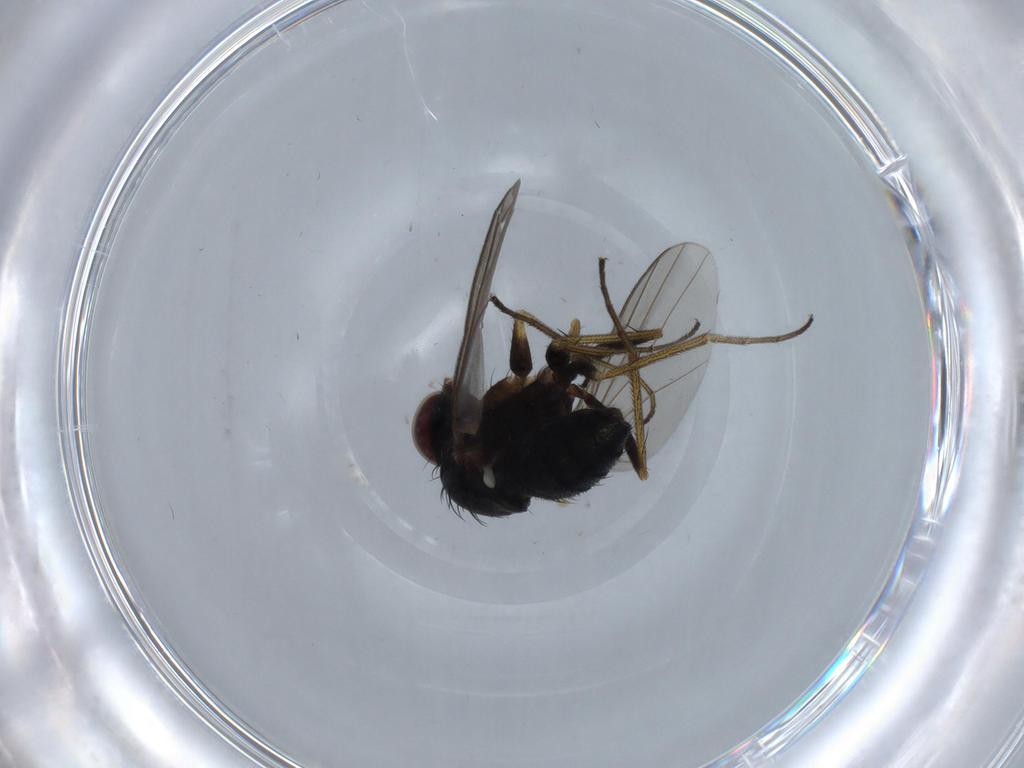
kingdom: Animalia
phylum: Arthropoda
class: Insecta
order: Diptera
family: Dolichopodidae
